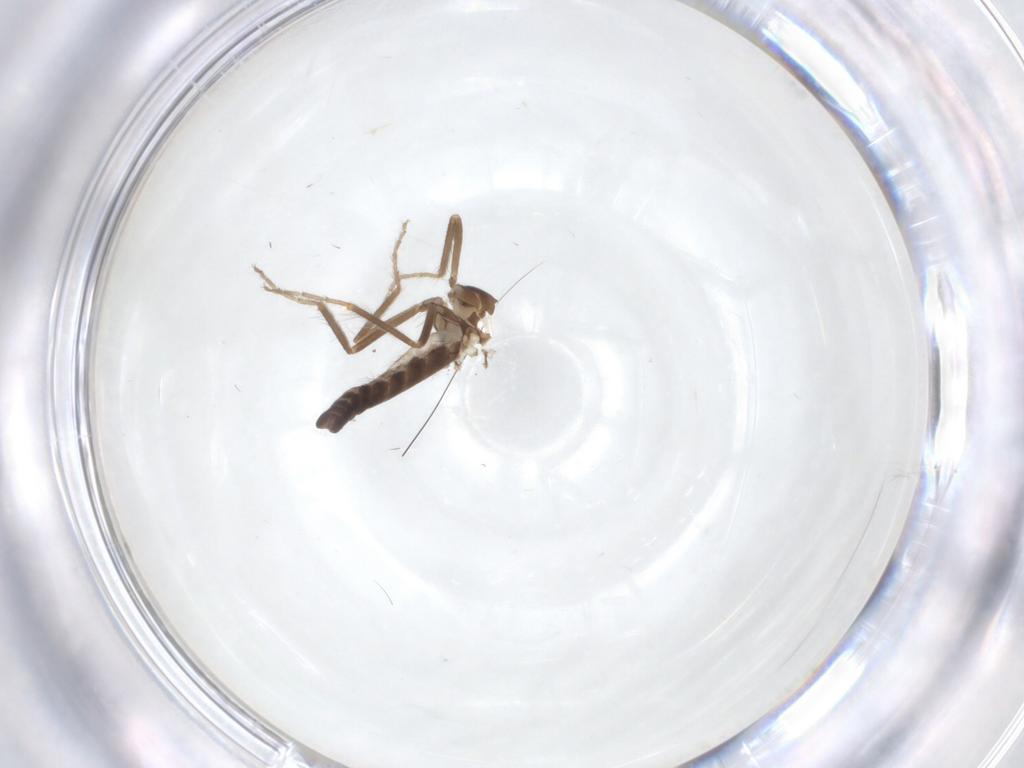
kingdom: Animalia
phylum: Arthropoda
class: Insecta
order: Diptera
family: Ceratopogonidae
